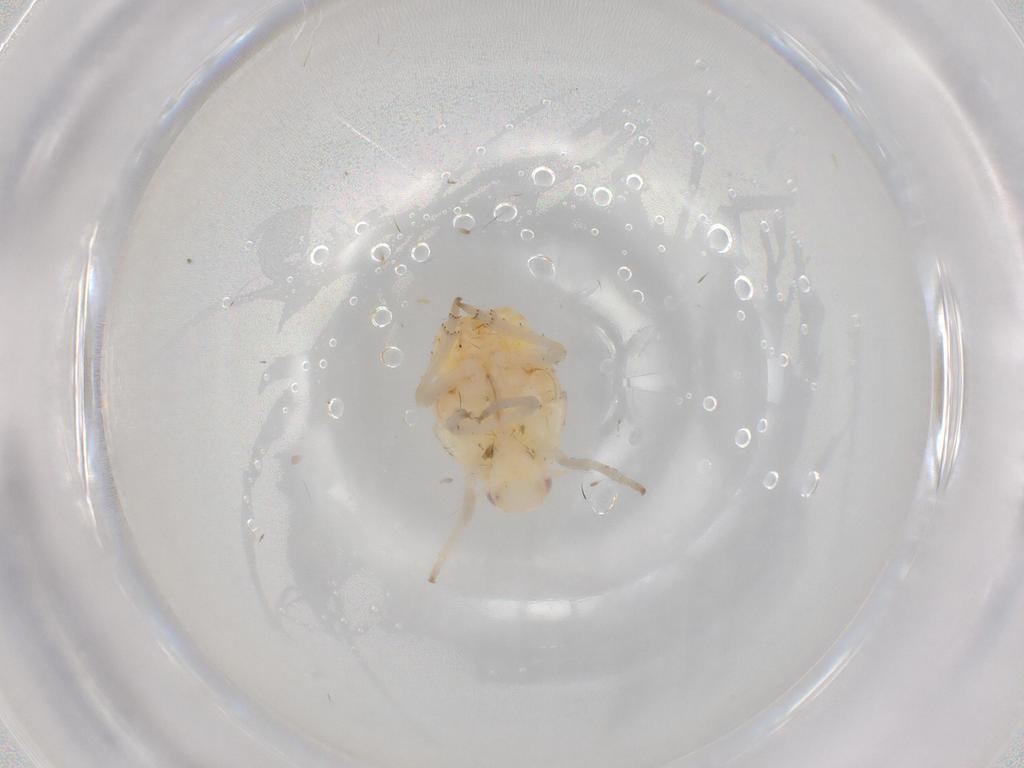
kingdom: Animalia
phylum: Arthropoda
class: Insecta
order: Hemiptera
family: Flatidae
